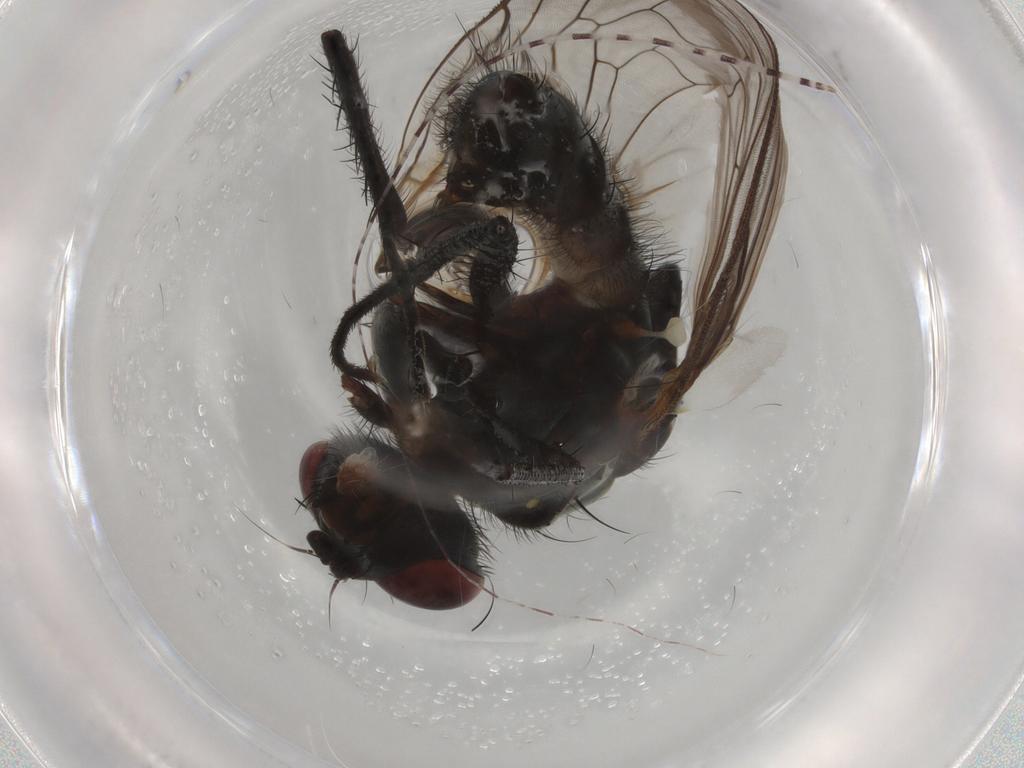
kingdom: Animalia
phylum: Arthropoda
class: Insecta
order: Diptera
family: Anthomyiidae
